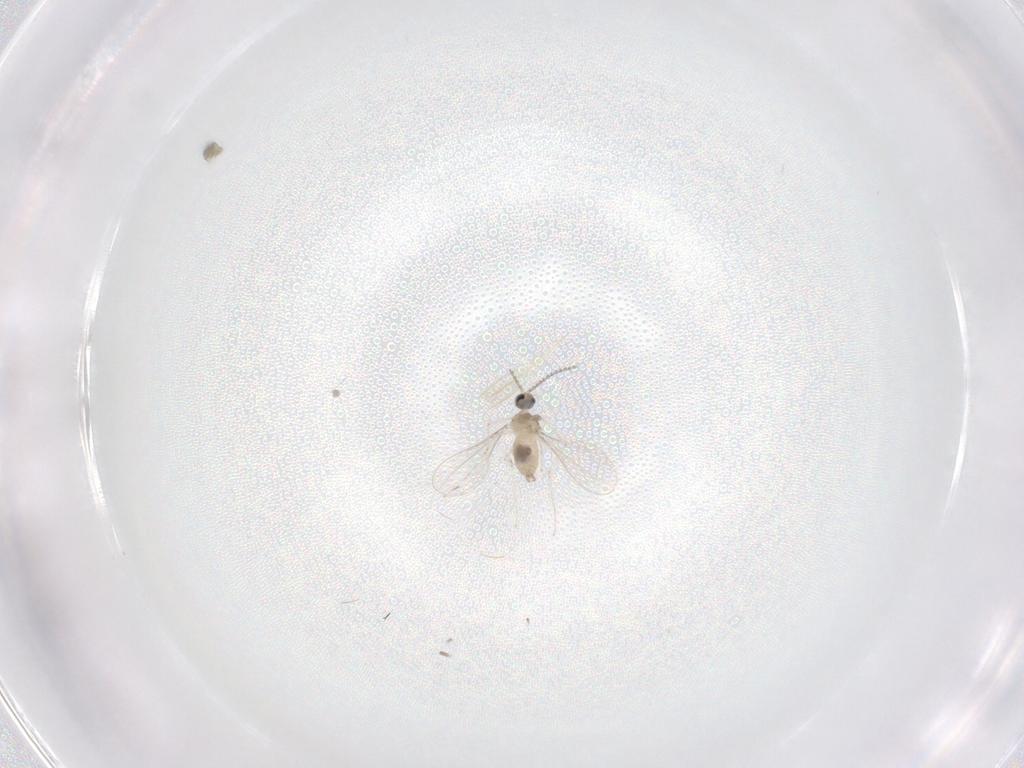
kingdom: Animalia
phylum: Arthropoda
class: Insecta
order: Diptera
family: Cecidomyiidae
